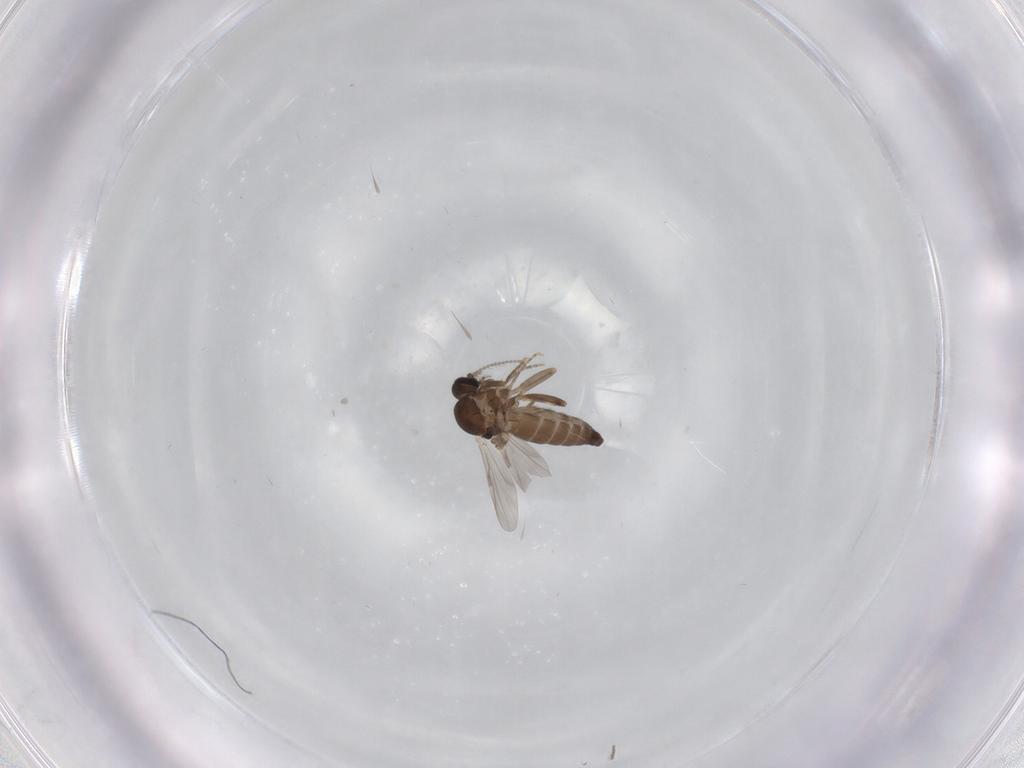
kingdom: Animalia
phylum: Arthropoda
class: Insecta
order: Diptera
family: Ceratopogonidae
